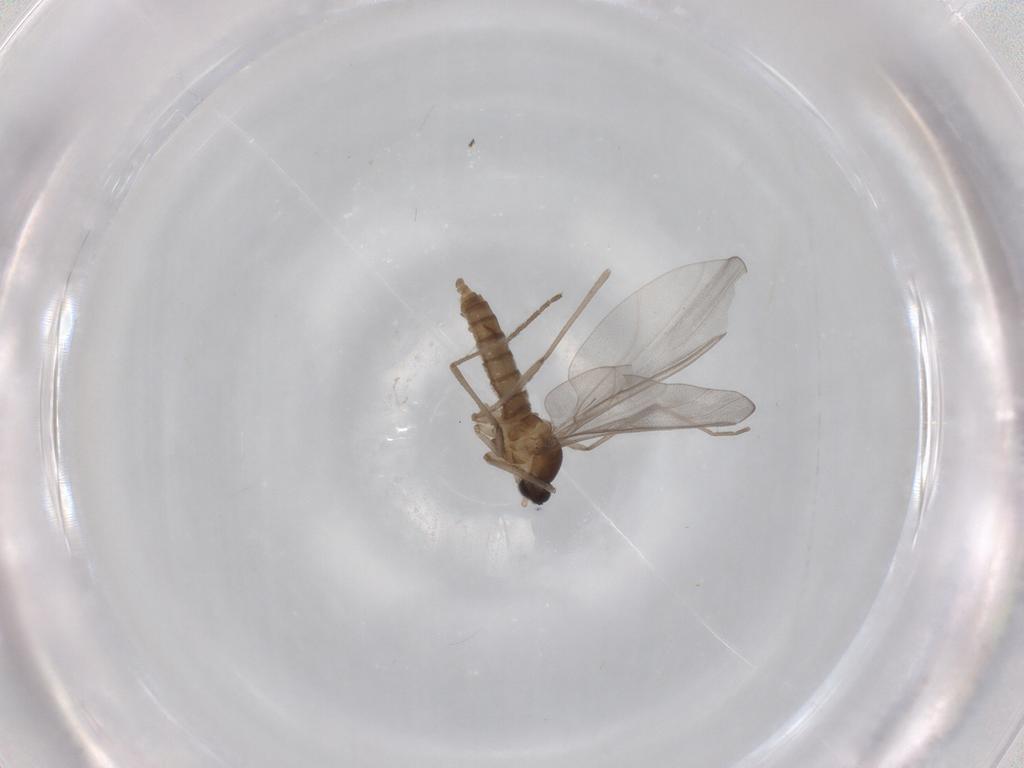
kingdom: Animalia
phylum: Arthropoda
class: Insecta
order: Diptera
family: Cecidomyiidae
